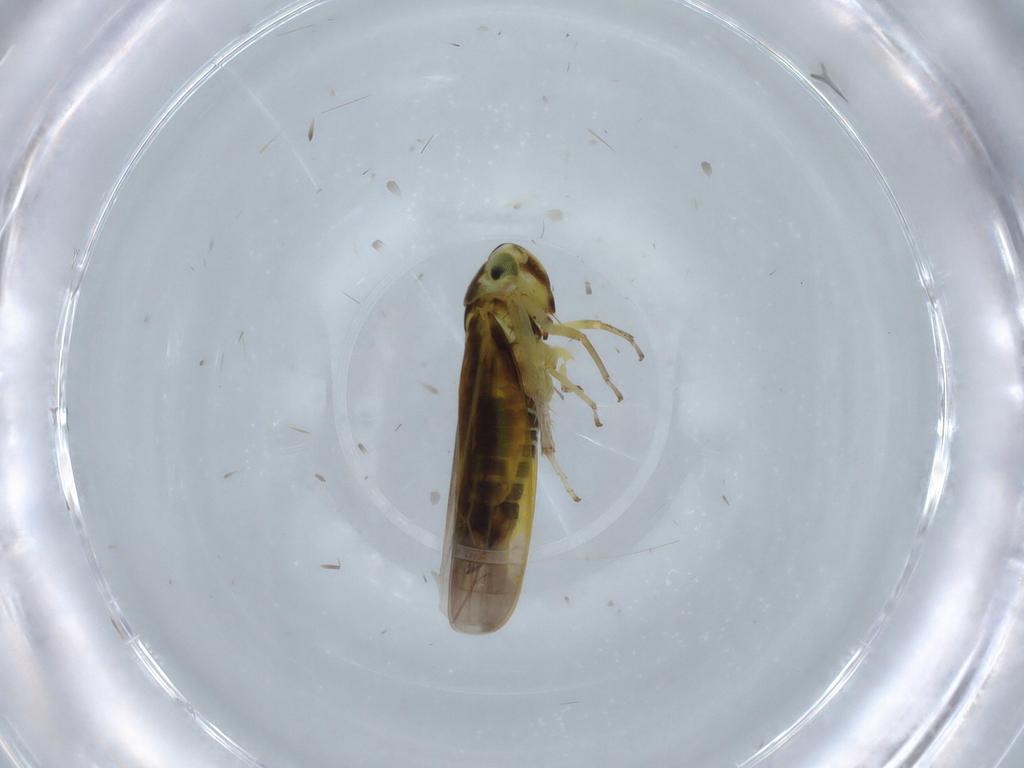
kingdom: Animalia
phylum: Arthropoda
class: Insecta
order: Hemiptera
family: Cicadellidae
